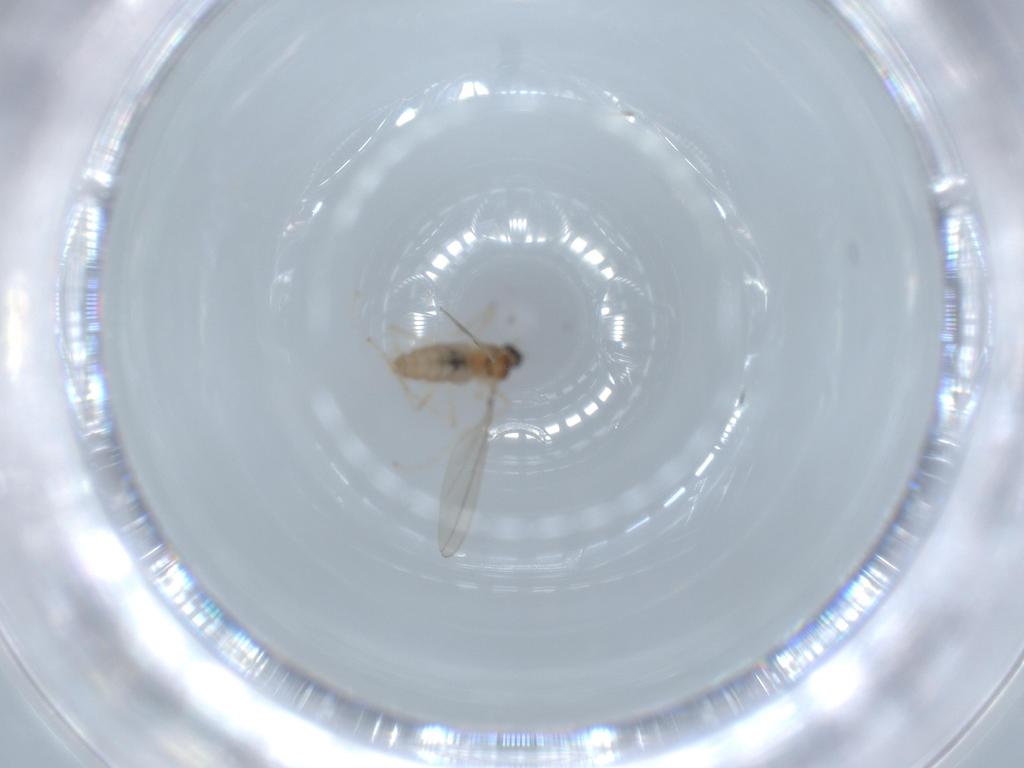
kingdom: Animalia
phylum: Arthropoda
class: Insecta
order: Diptera
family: Cecidomyiidae
